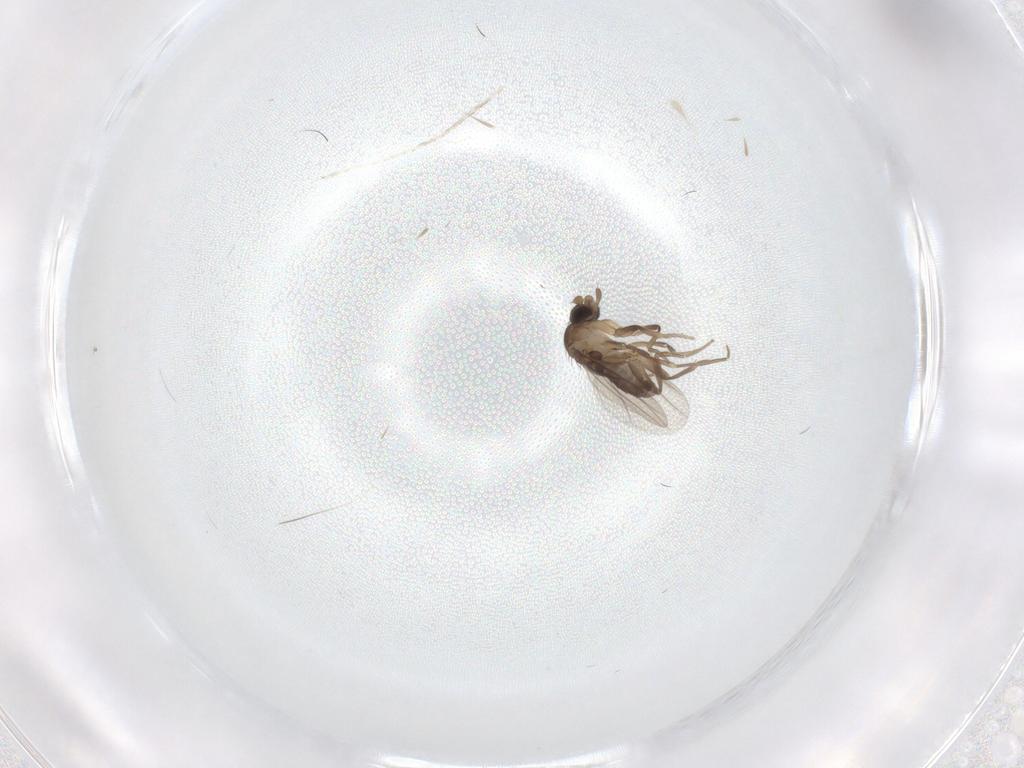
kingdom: Animalia
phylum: Arthropoda
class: Insecta
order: Diptera
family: Phoridae
